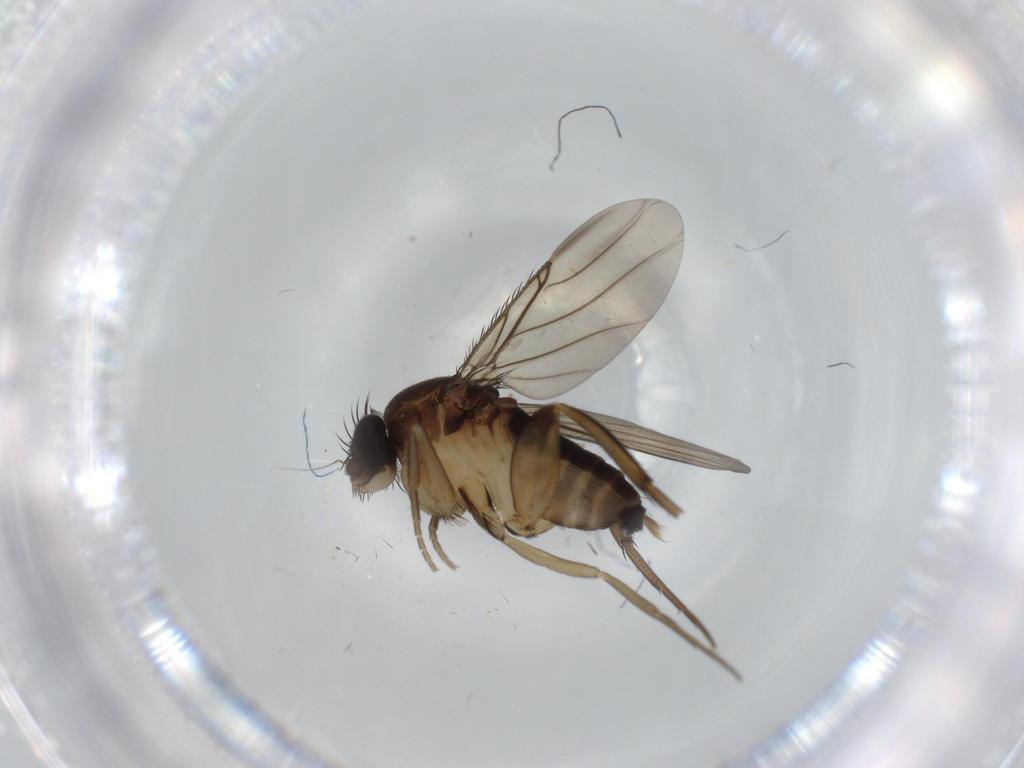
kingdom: Animalia
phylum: Arthropoda
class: Insecta
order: Diptera
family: Phoridae
